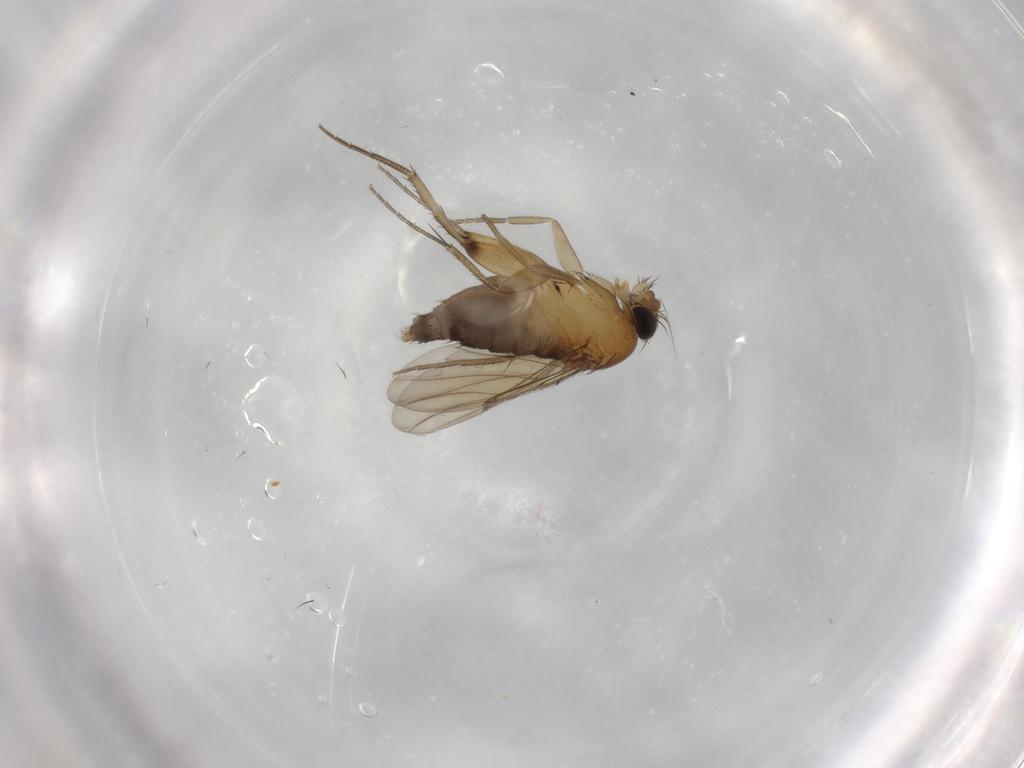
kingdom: Animalia
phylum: Arthropoda
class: Insecta
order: Diptera
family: Phoridae
